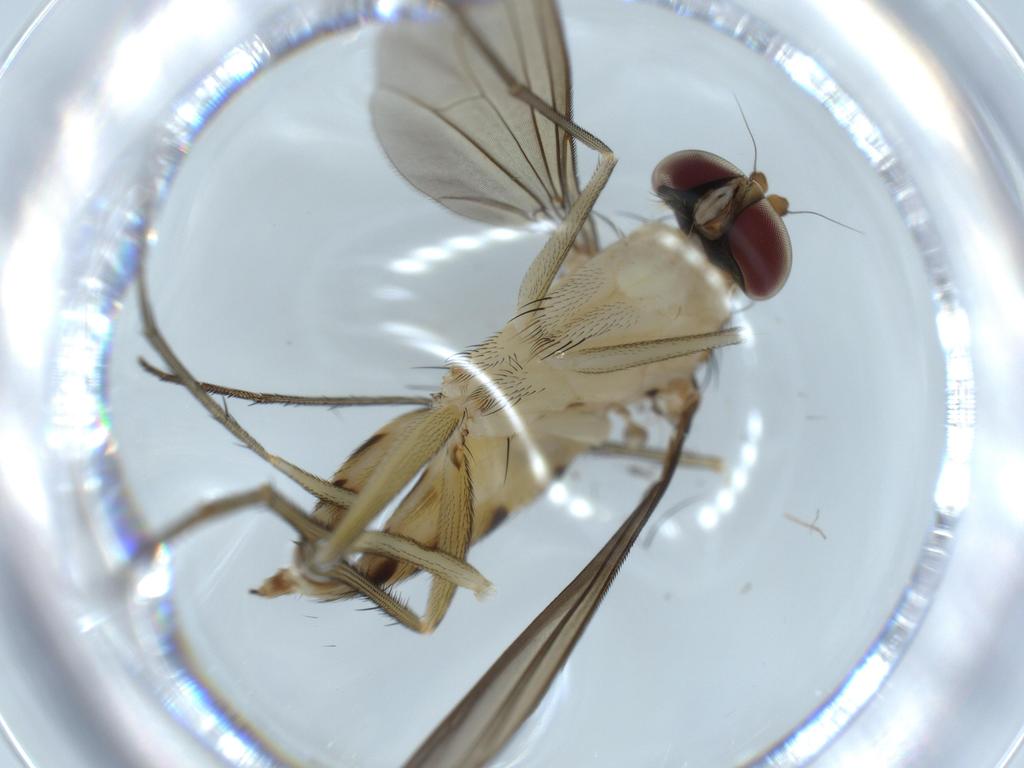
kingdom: Animalia
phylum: Arthropoda
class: Insecta
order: Diptera
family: Dolichopodidae
